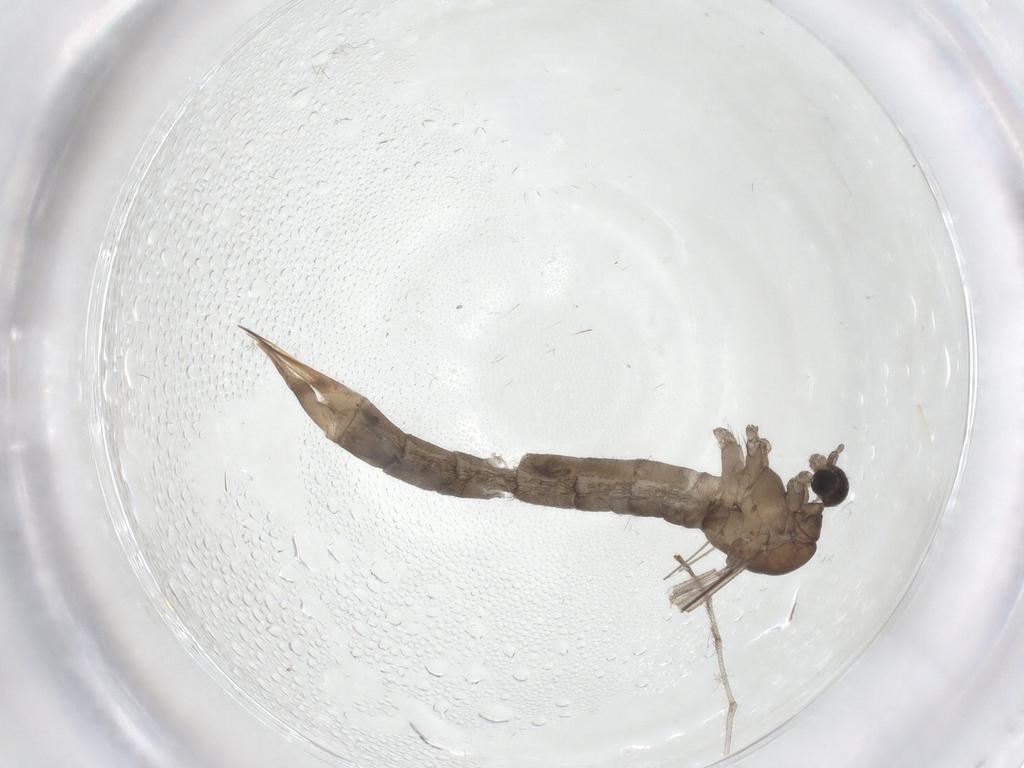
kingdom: Animalia
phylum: Arthropoda
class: Insecta
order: Diptera
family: Limoniidae
